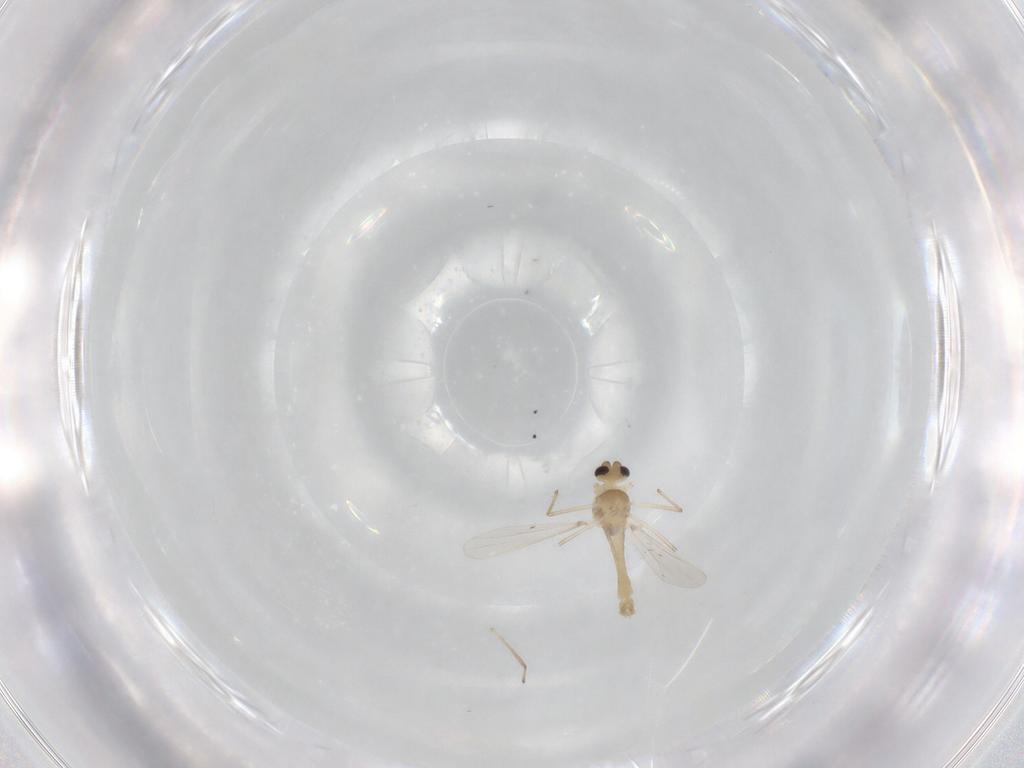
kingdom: Animalia
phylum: Arthropoda
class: Insecta
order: Diptera
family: Chironomidae
